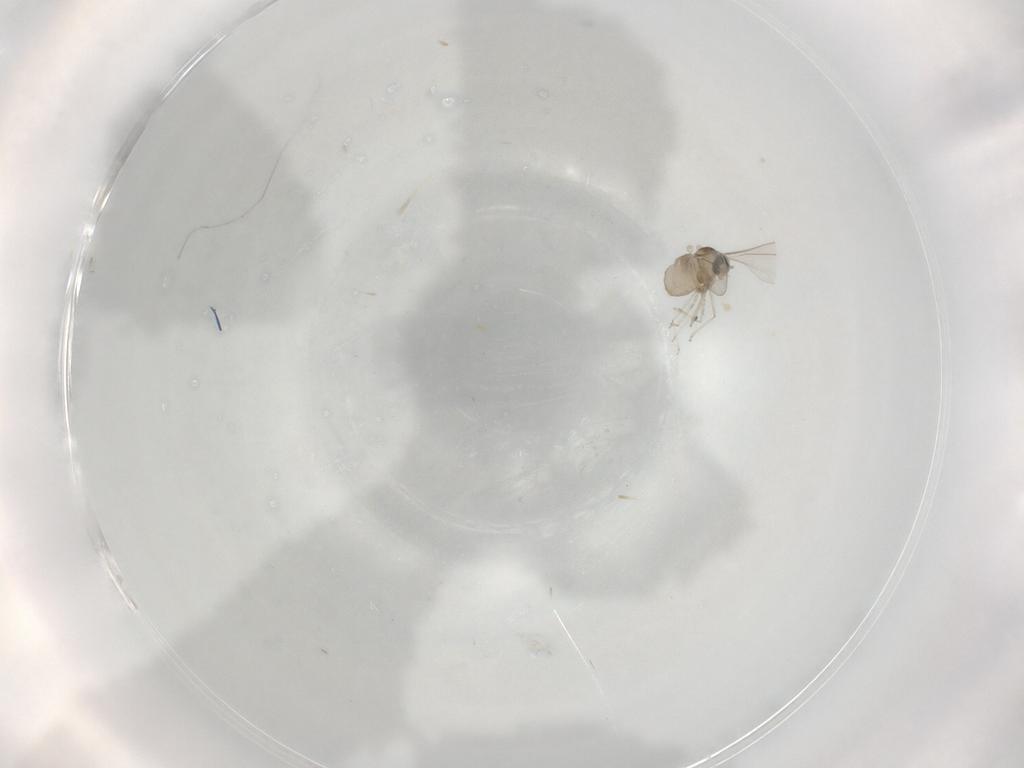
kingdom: Animalia
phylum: Arthropoda
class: Insecta
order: Diptera
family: Cecidomyiidae
